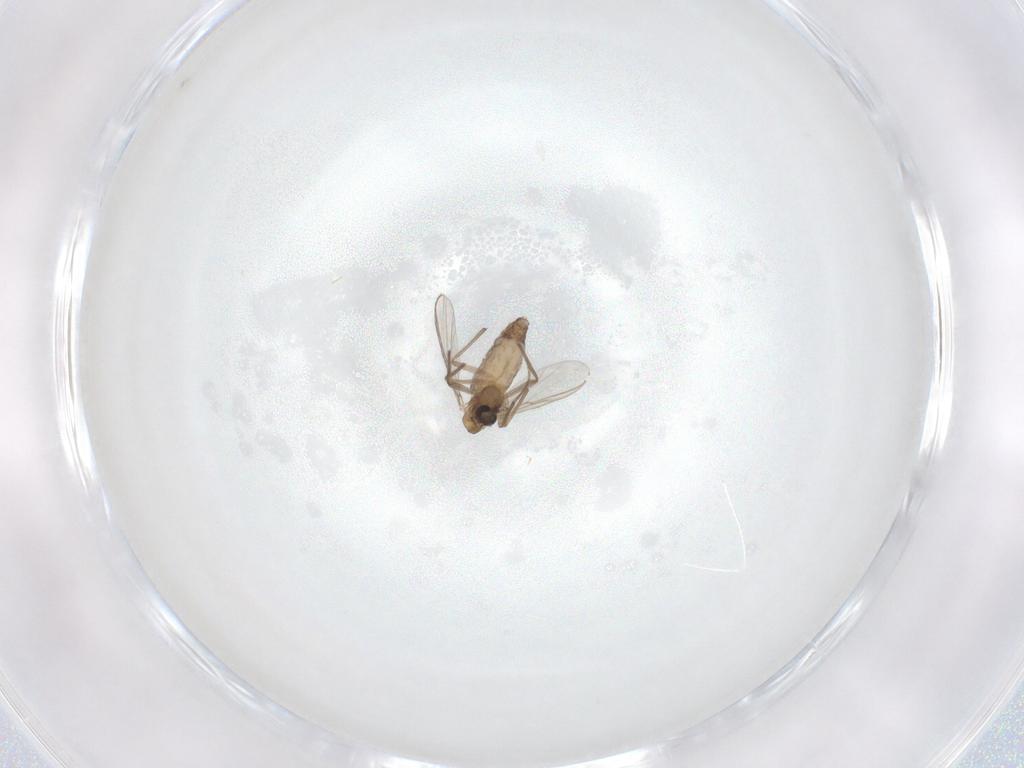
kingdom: Animalia
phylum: Arthropoda
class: Insecta
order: Diptera
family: Chironomidae
